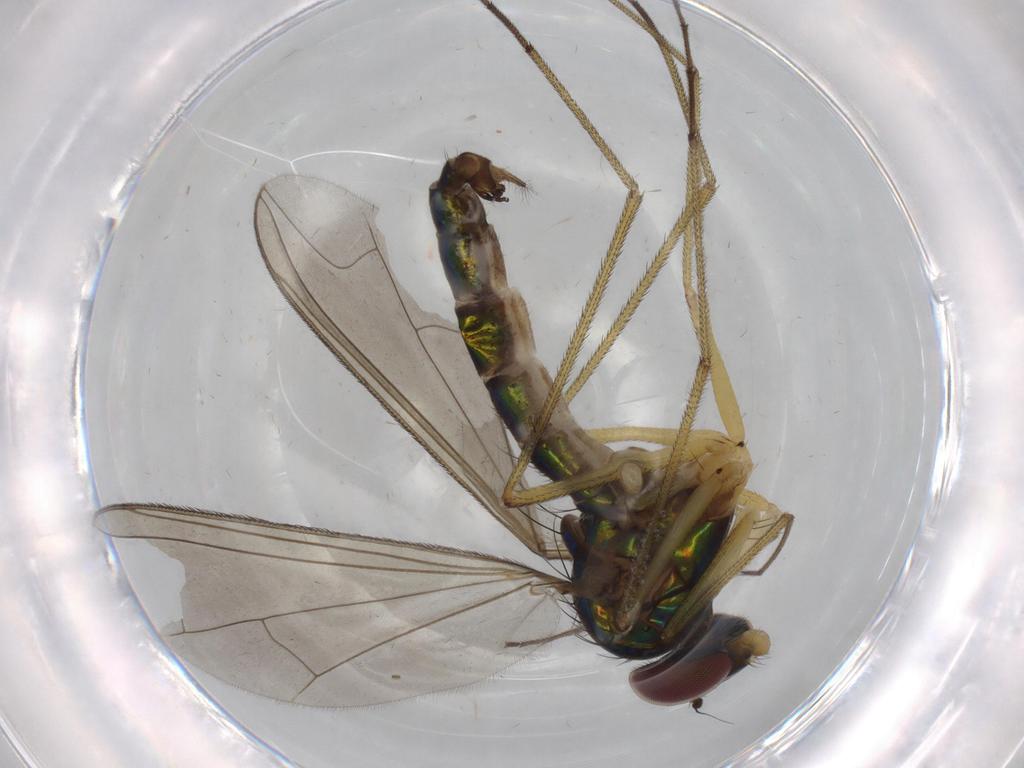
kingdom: Animalia
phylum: Arthropoda
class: Insecta
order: Diptera
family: Dolichopodidae
